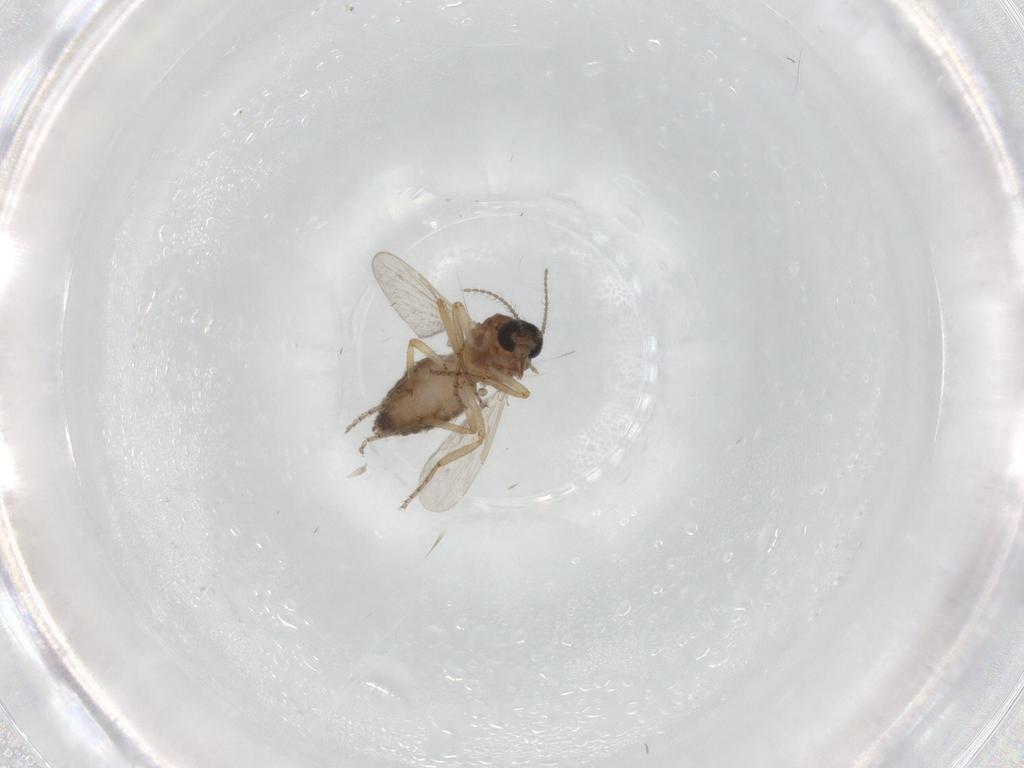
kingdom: Animalia
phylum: Arthropoda
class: Insecta
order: Diptera
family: Ceratopogonidae
